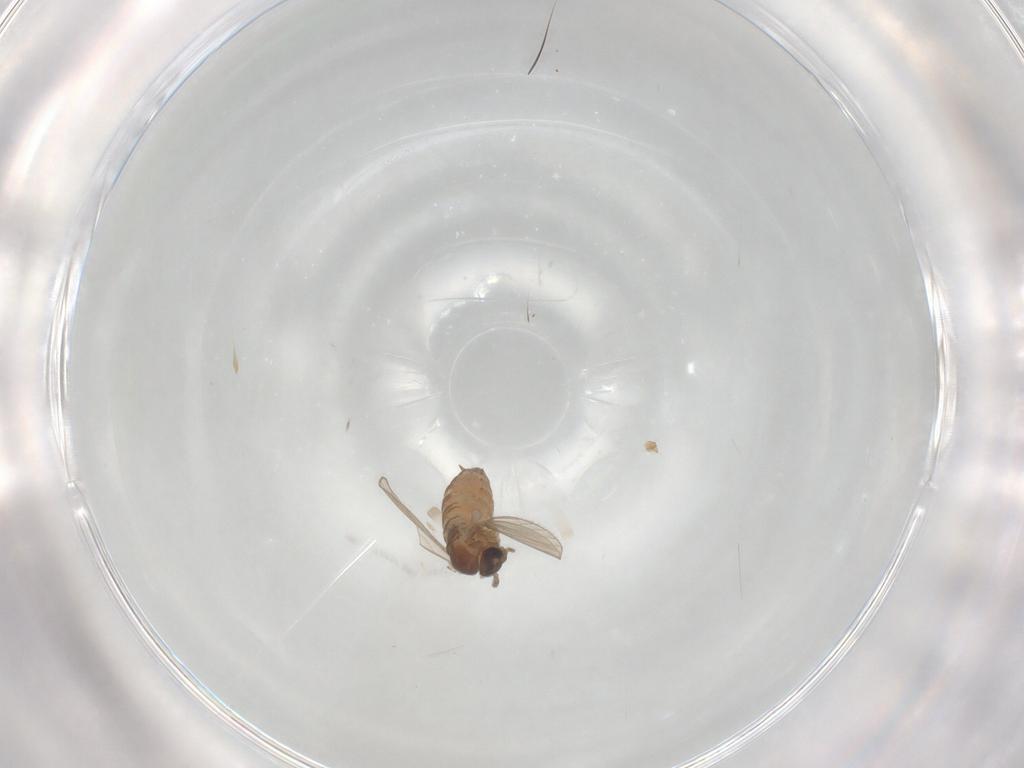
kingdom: Animalia
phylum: Arthropoda
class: Insecta
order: Diptera
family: Psychodidae
